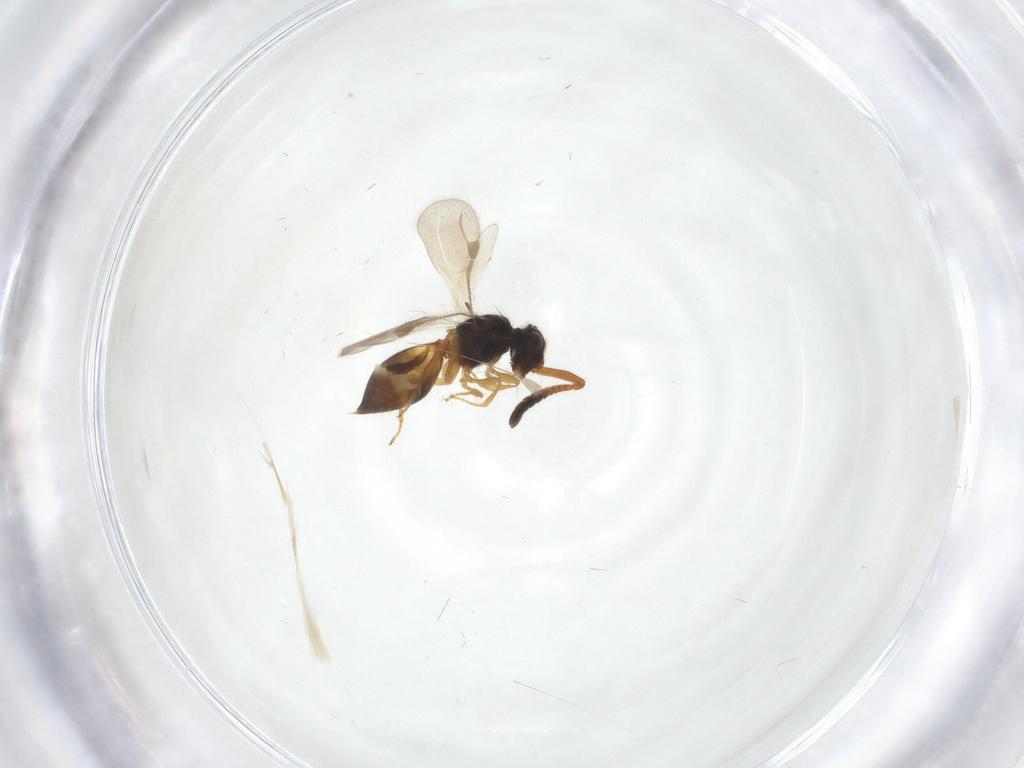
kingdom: Animalia
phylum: Arthropoda
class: Insecta
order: Hymenoptera
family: Megaspilidae
